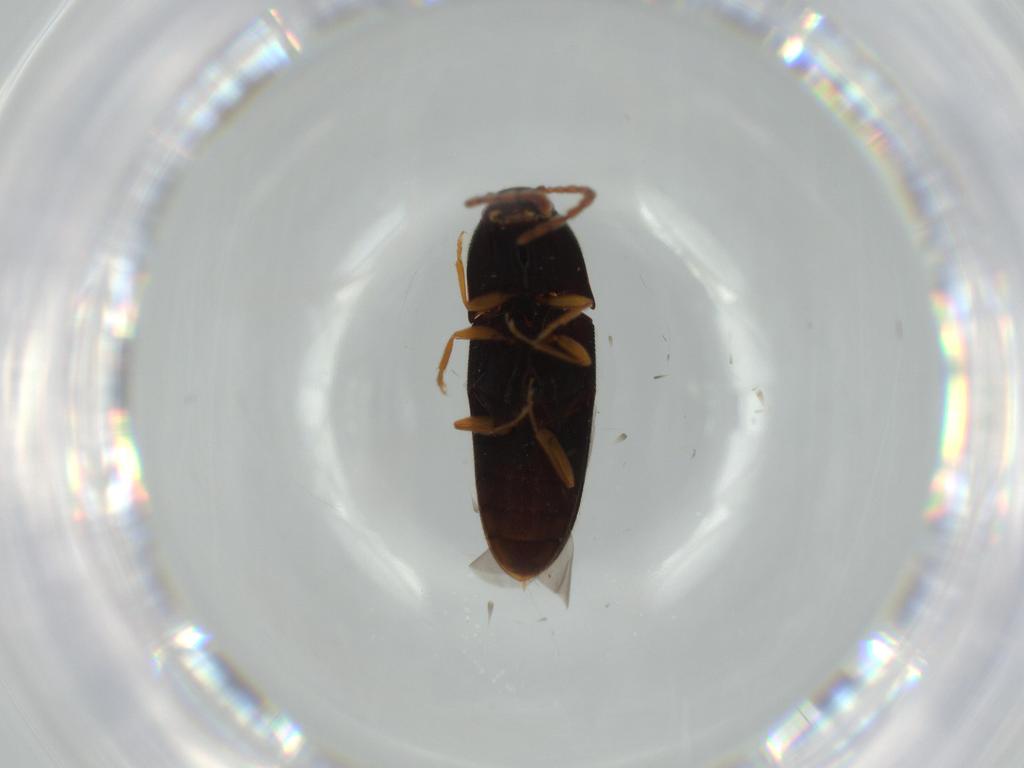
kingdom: Animalia
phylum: Arthropoda
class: Insecta
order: Coleoptera
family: Elateridae
